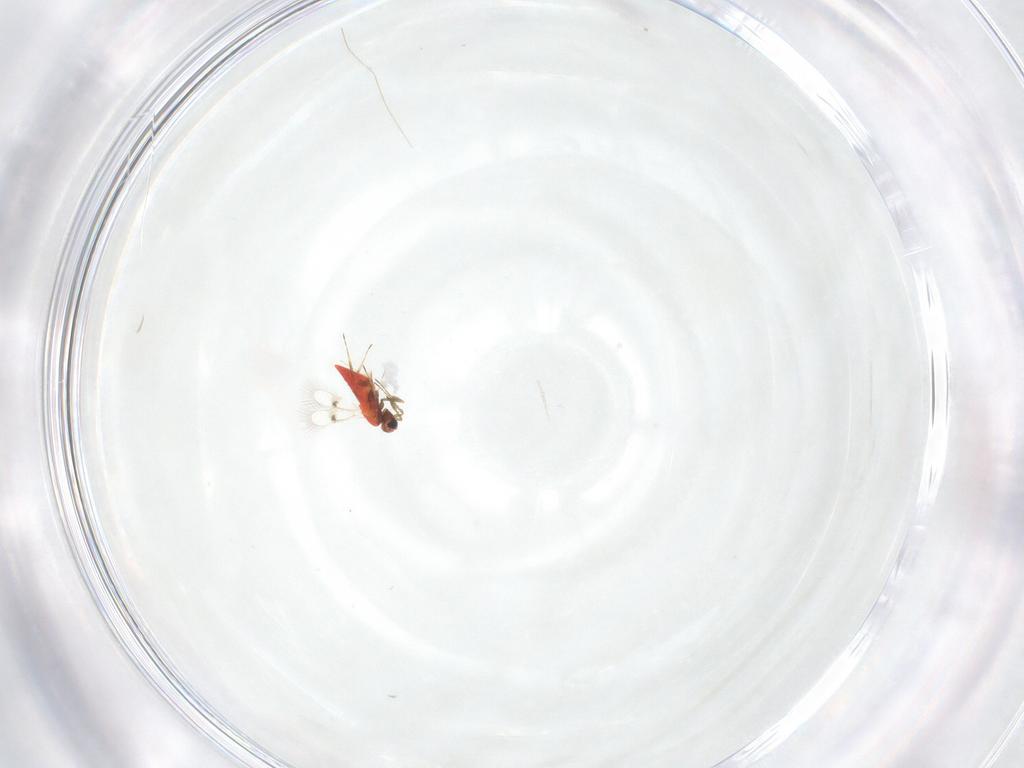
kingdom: Animalia
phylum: Arthropoda
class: Insecta
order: Hymenoptera
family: Trichogrammatidae
